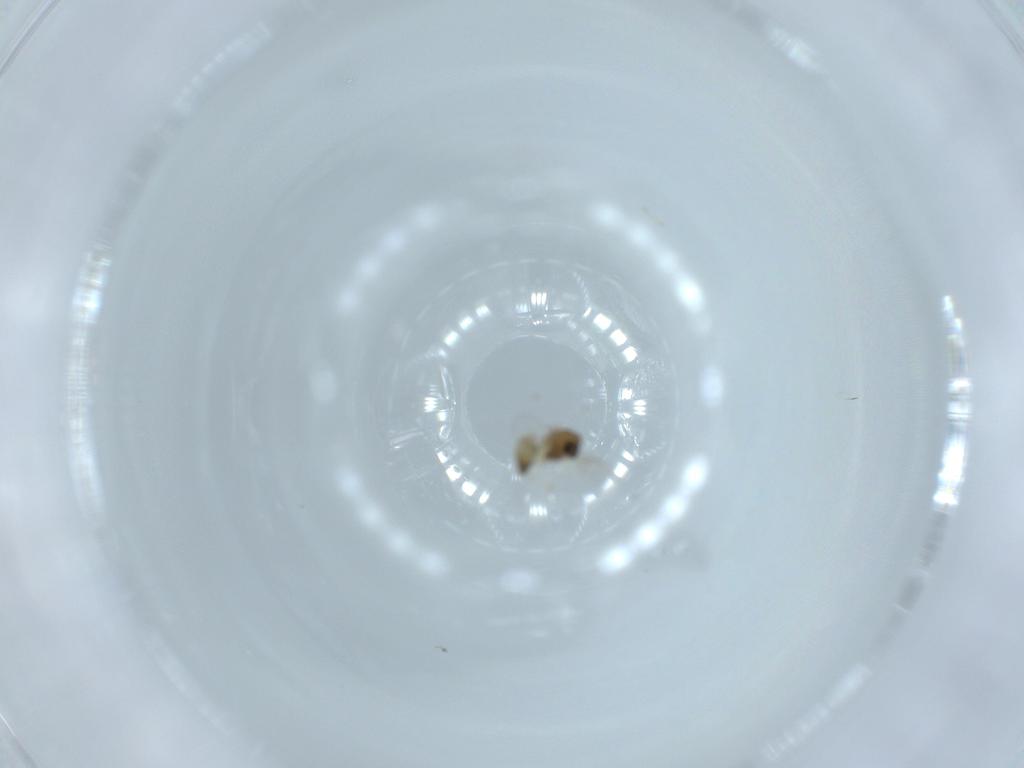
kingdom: Animalia
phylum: Arthropoda
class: Insecta
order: Diptera
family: Chironomidae
